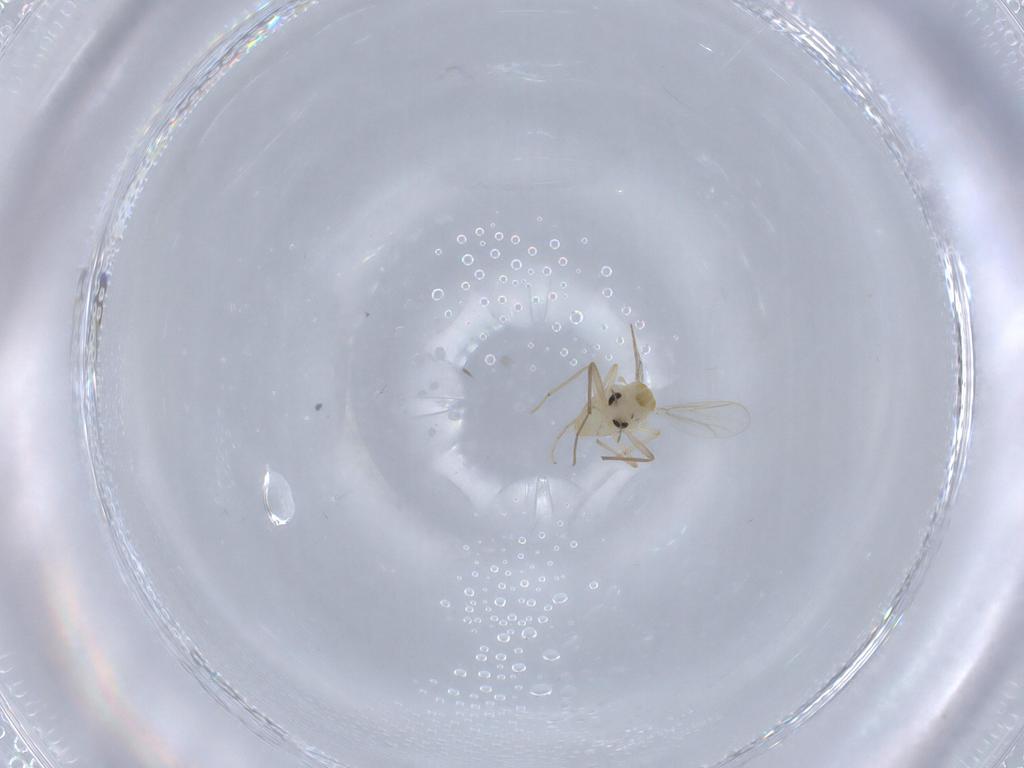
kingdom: Animalia
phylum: Arthropoda
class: Insecta
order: Diptera
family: Chironomidae
